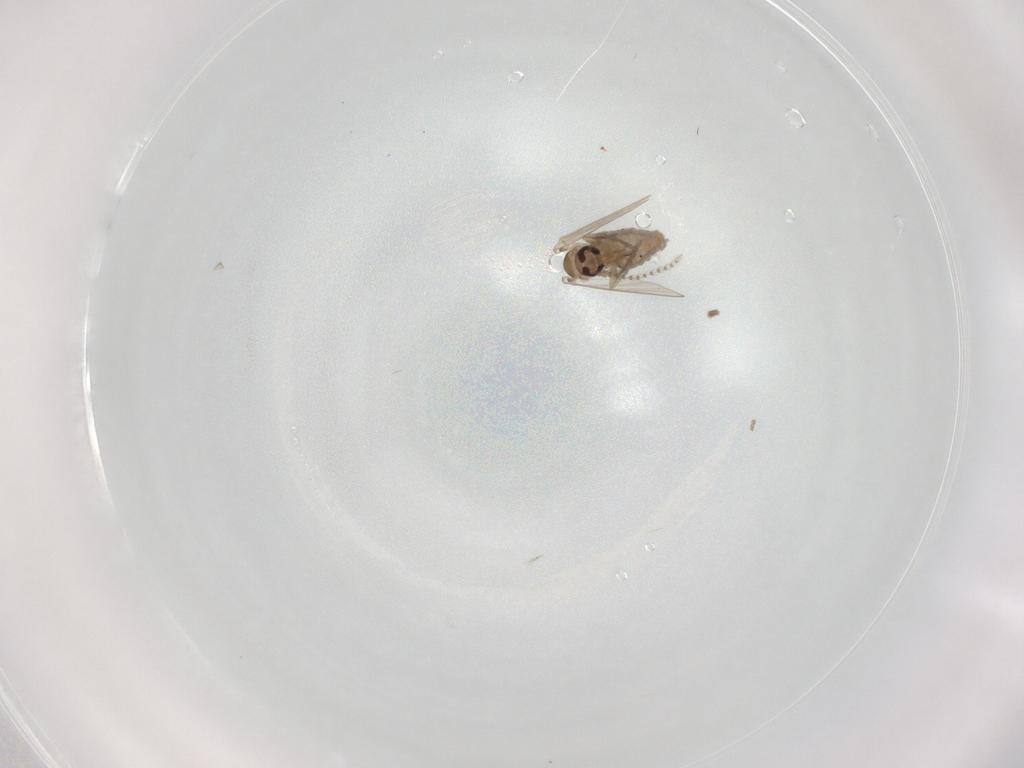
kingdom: Animalia
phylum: Arthropoda
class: Insecta
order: Diptera
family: Psychodidae
